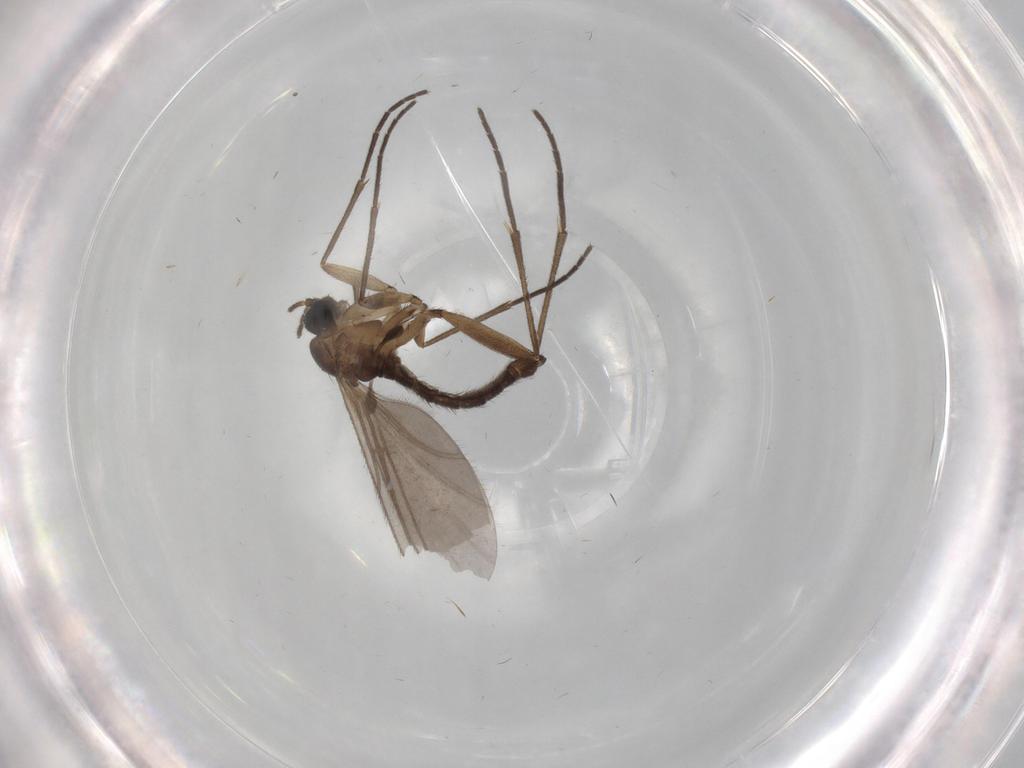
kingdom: Animalia
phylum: Arthropoda
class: Insecta
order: Diptera
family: Sciaridae
